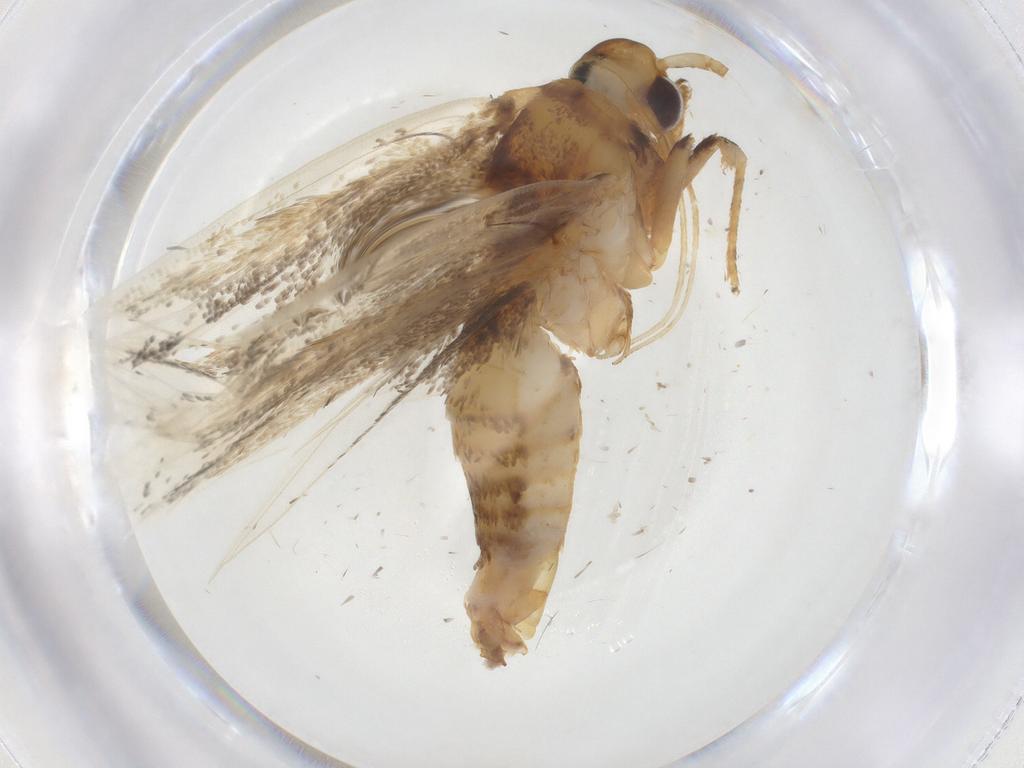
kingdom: Animalia
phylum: Arthropoda
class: Insecta
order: Lepidoptera
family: Lecithoceridae
